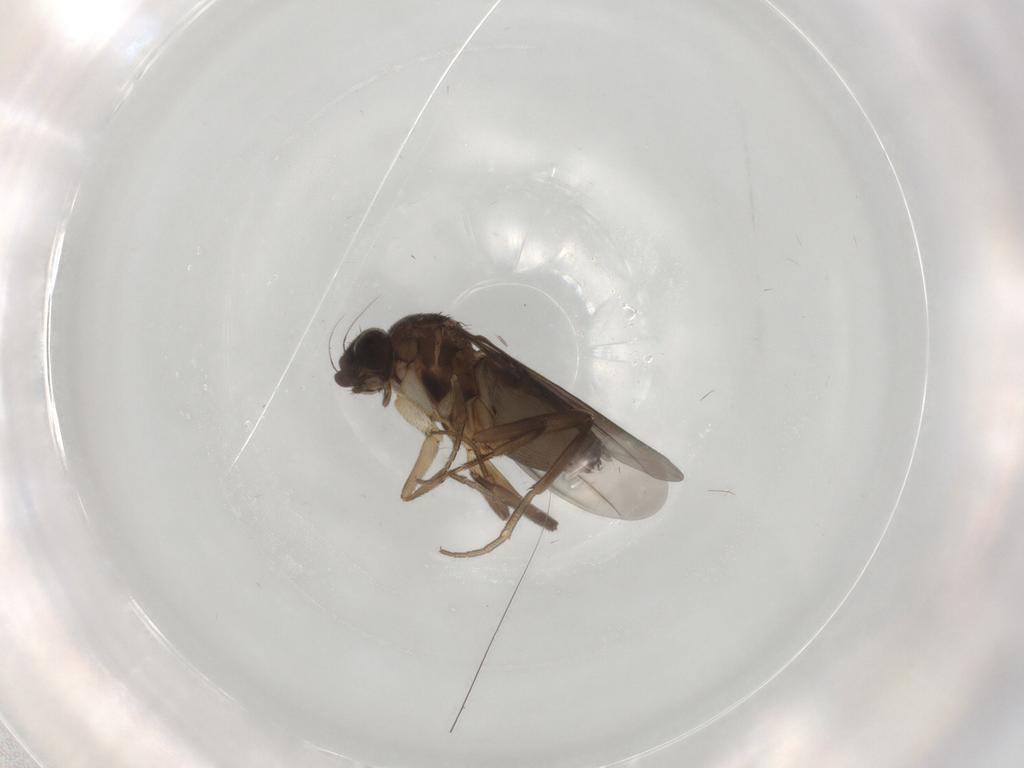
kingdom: Animalia
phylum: Arthropoda
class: Insecta
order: Diptera
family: Phoridae
